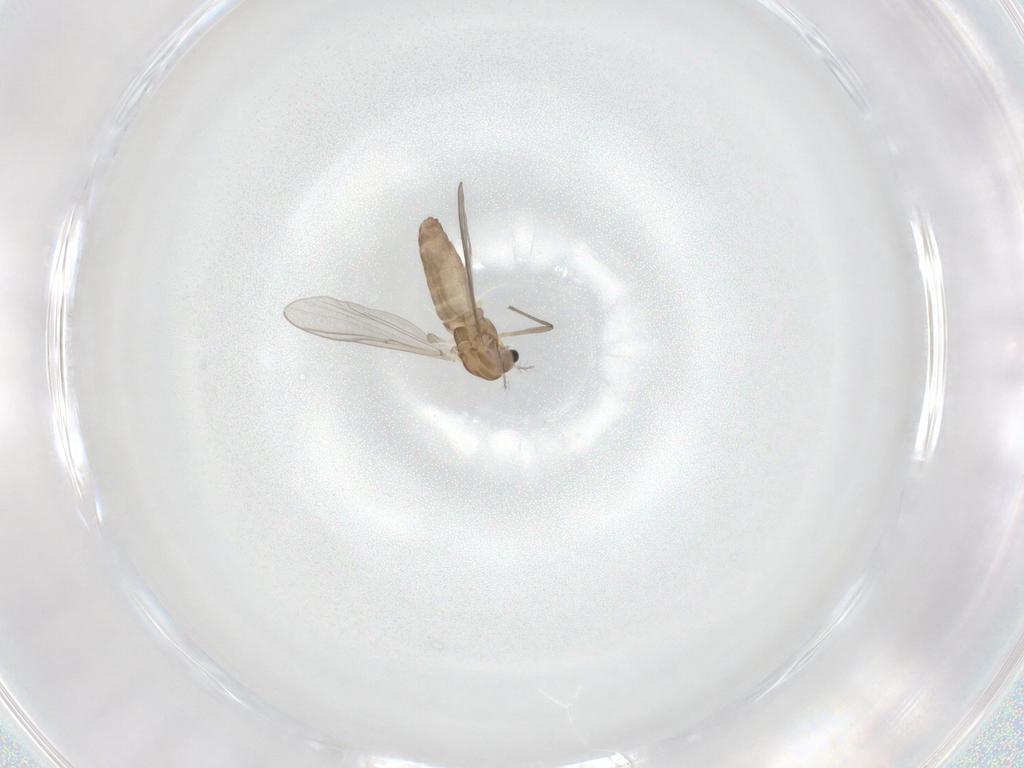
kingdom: Animalia
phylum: Arthropoda
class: Insecta
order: Diptera
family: Chironomidae
